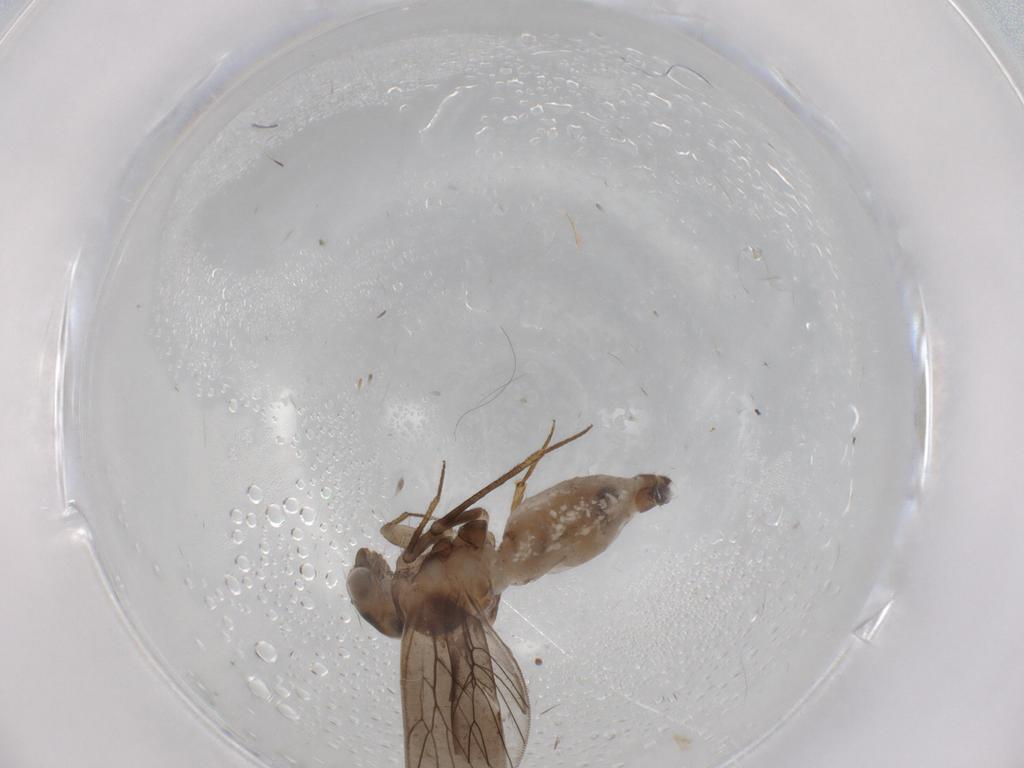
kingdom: Animalia
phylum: Arthropoda
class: Insecta
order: Psocodea
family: Lepidopsocidae
